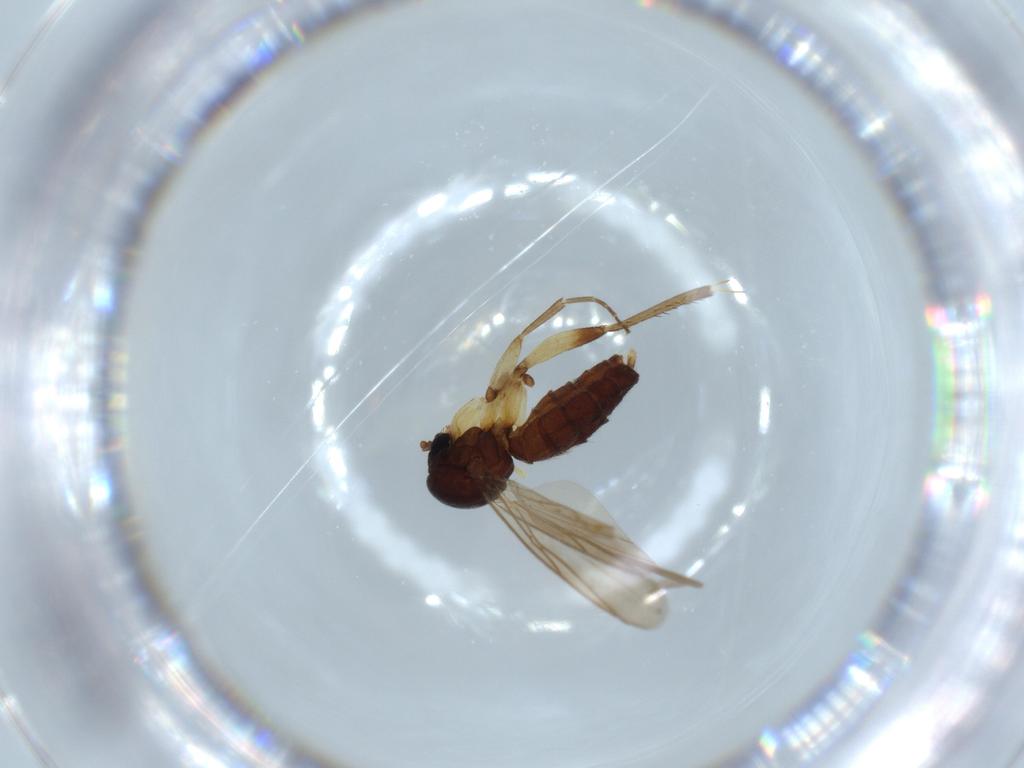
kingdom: Animalia
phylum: Arthropoda
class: Insecta
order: Diptera
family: Mycetophilidae
